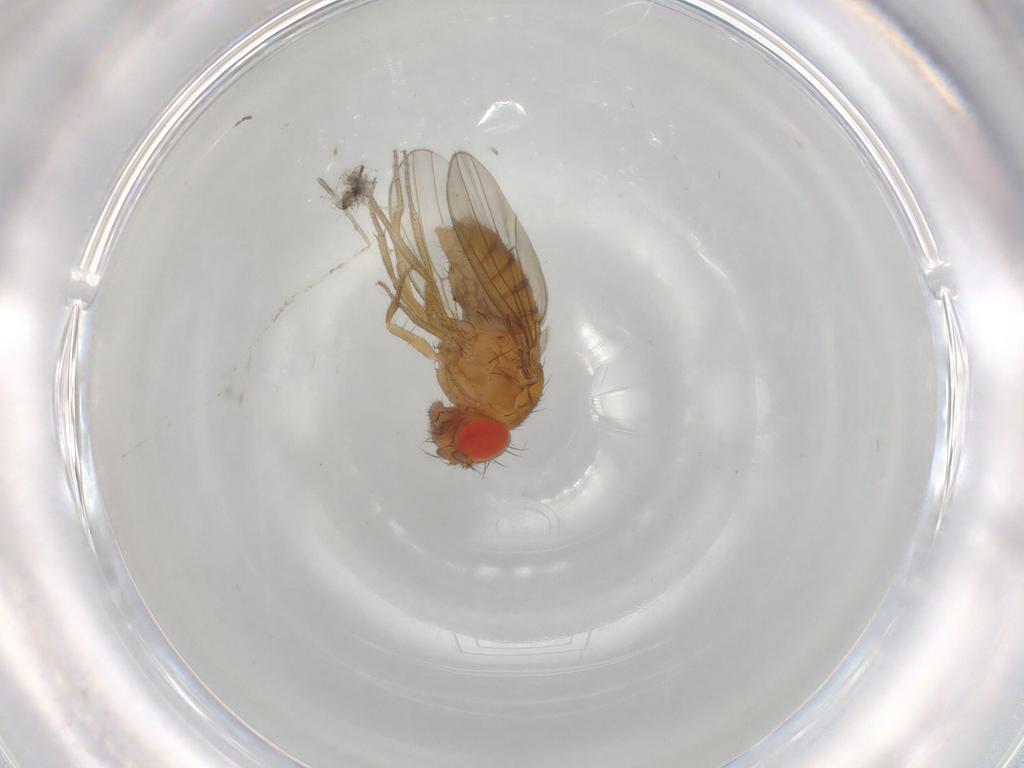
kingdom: Animalia
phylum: Arthropoda
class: Insecta
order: Diptera
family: Drosophilidae
